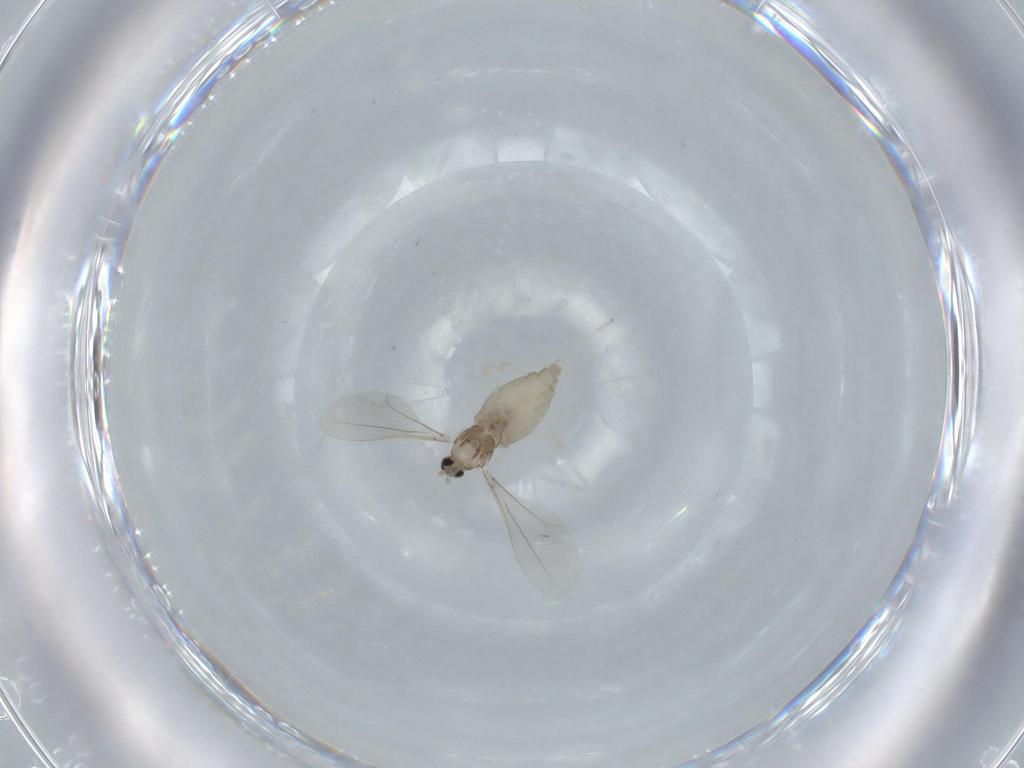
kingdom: Animalia
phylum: Arthropoda
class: Insecta
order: Diptera
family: Cecidomyiidae
